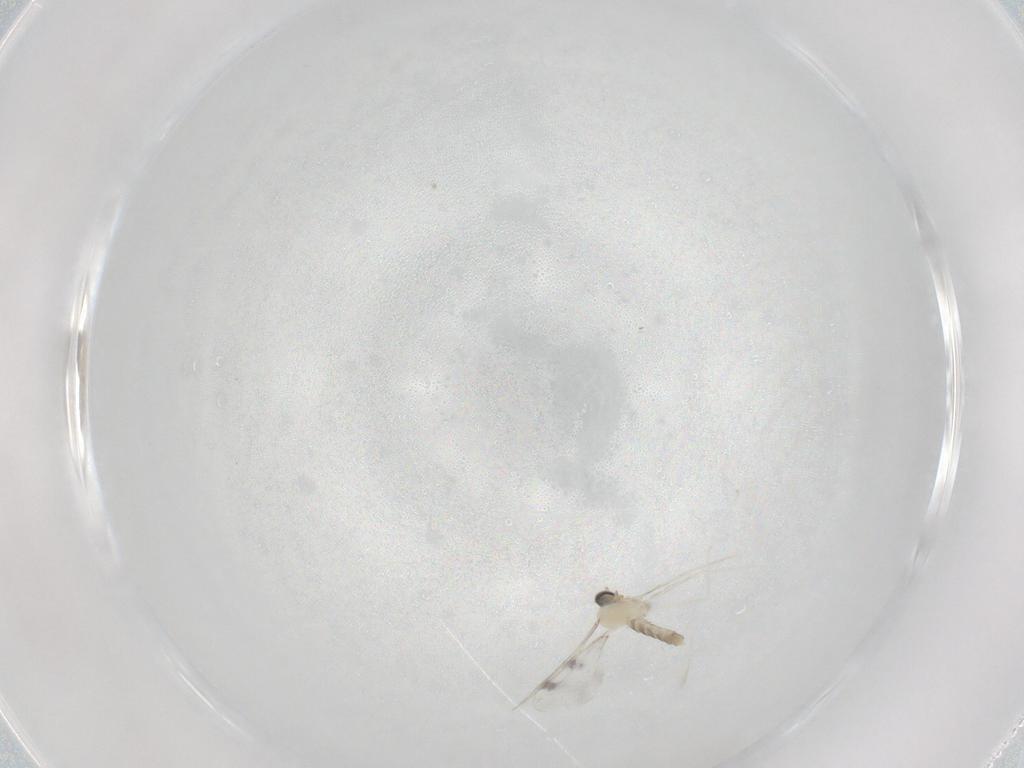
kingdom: Animalia
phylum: Arthropoda
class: Insecta
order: Diptera
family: Cecidomyiidae
